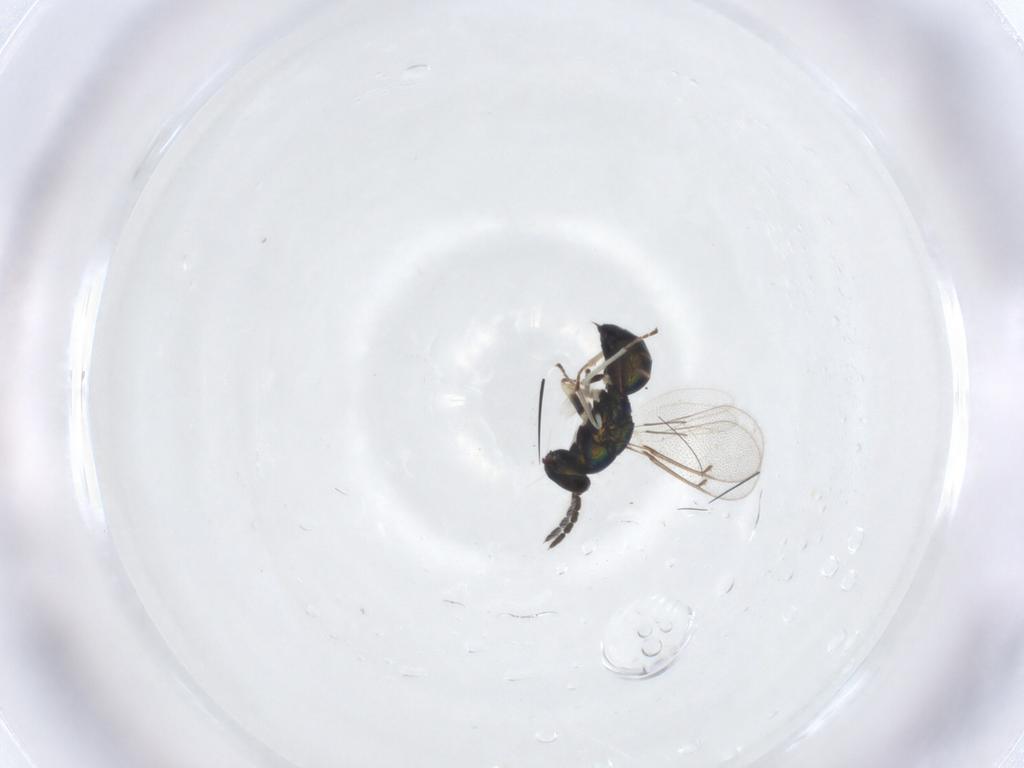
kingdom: Animalia
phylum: Arthropoda
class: Insecta
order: Hymenoptera
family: Eulophidae
